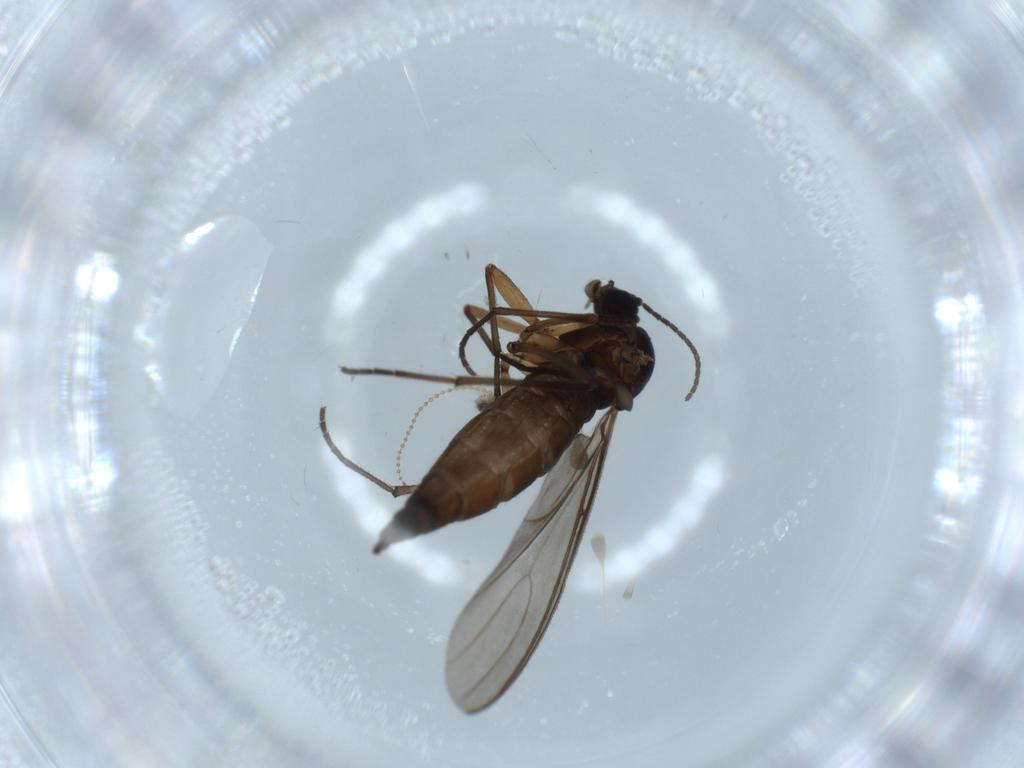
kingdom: Animalia
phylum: Arthropoda
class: Insecta
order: Diptera
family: Sciaridae
